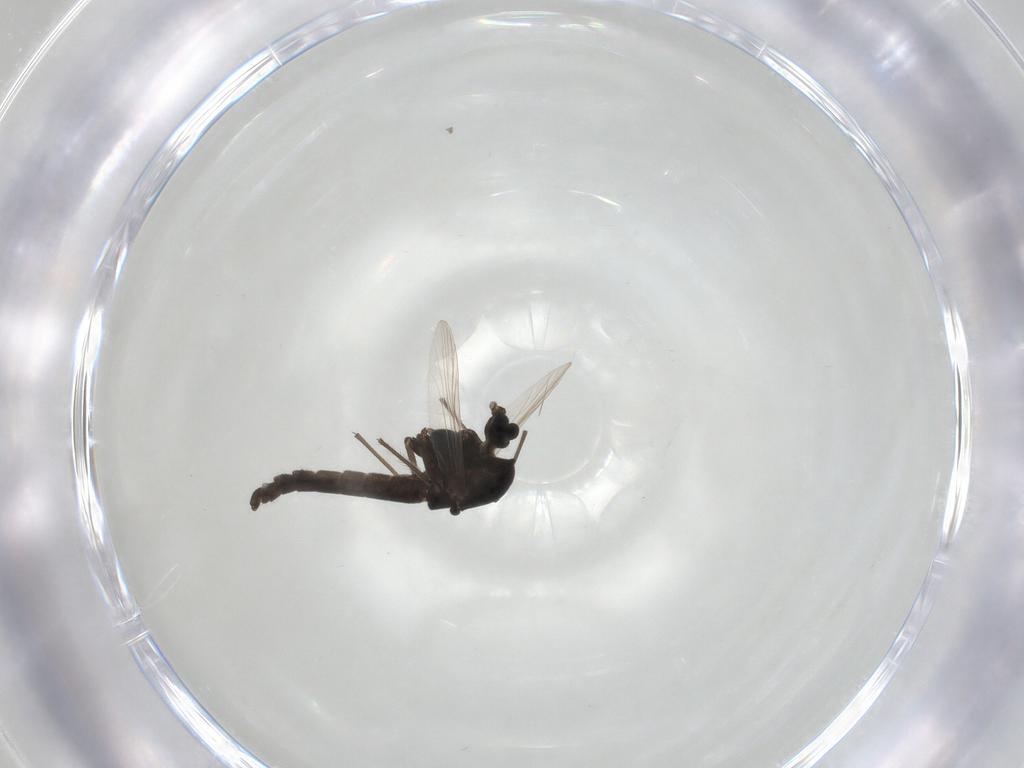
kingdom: Animalia
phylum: Arthropoda
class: Insecta
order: Diptera
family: Chironomidae
